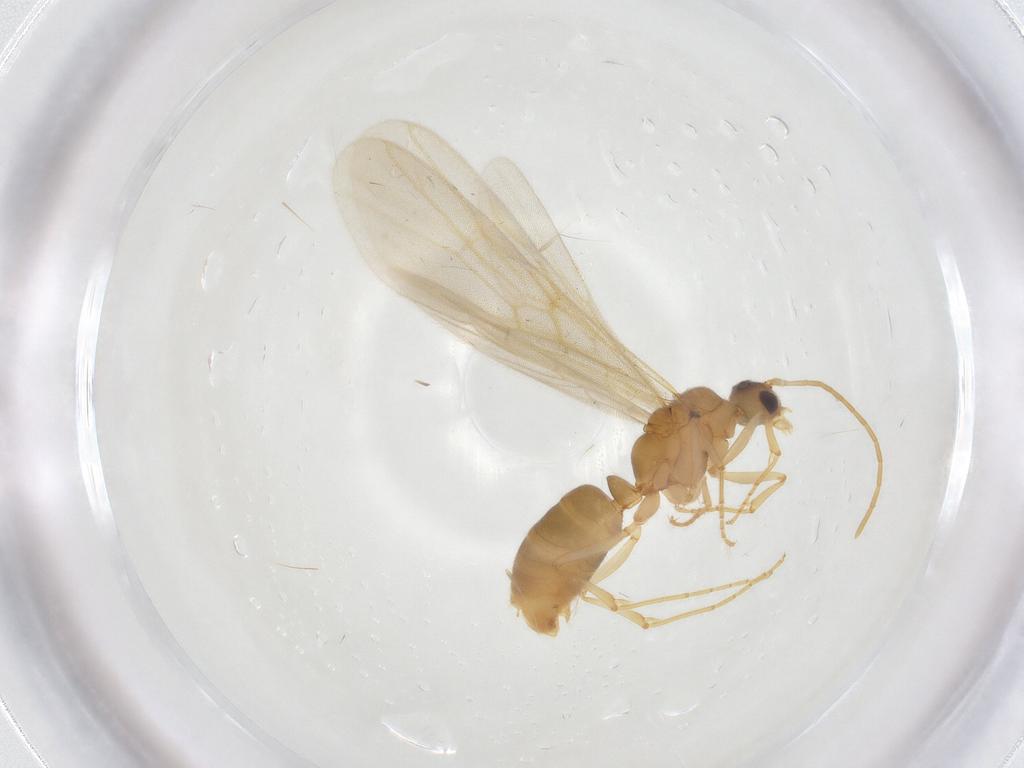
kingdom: Animalia
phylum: Arthropoda
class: Insecta
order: Hymenoptera
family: Formicidae
